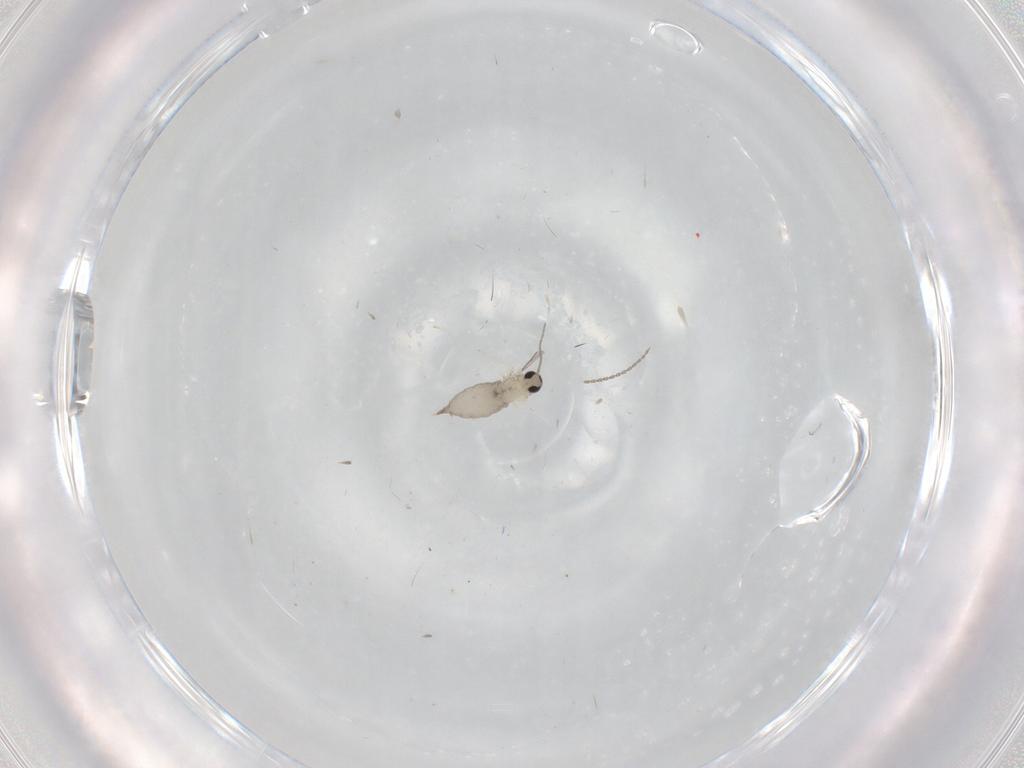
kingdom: Animalia
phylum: Arthropoda
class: Insecta
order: Diptera
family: Cecidomyiidae
